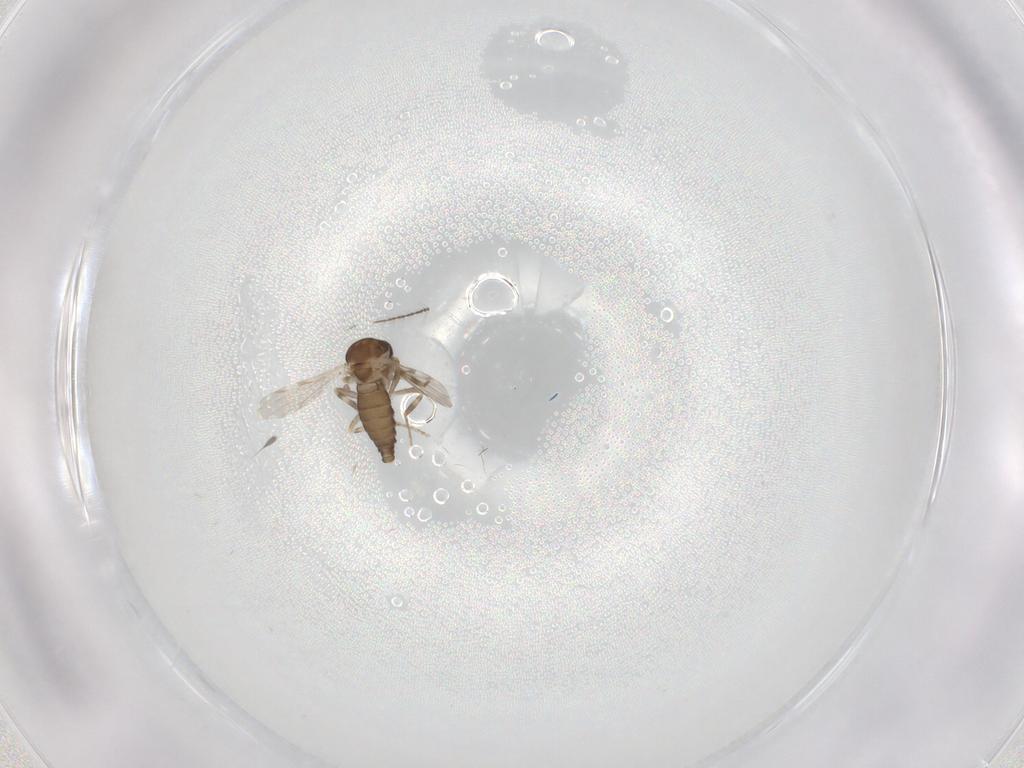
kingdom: Animalia
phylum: Arthropoda
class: Insecta
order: Diptera
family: Ceratopogonidae
